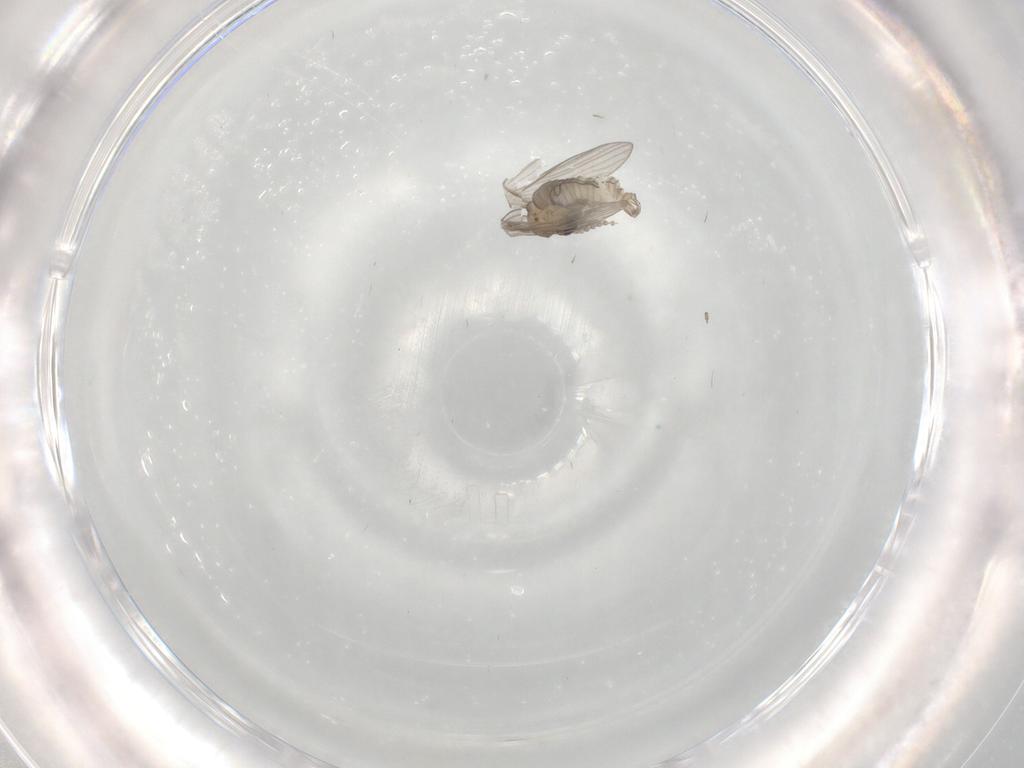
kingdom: Animalia
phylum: Arthropoda
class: Insecta
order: Diptera
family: Psychodidae
